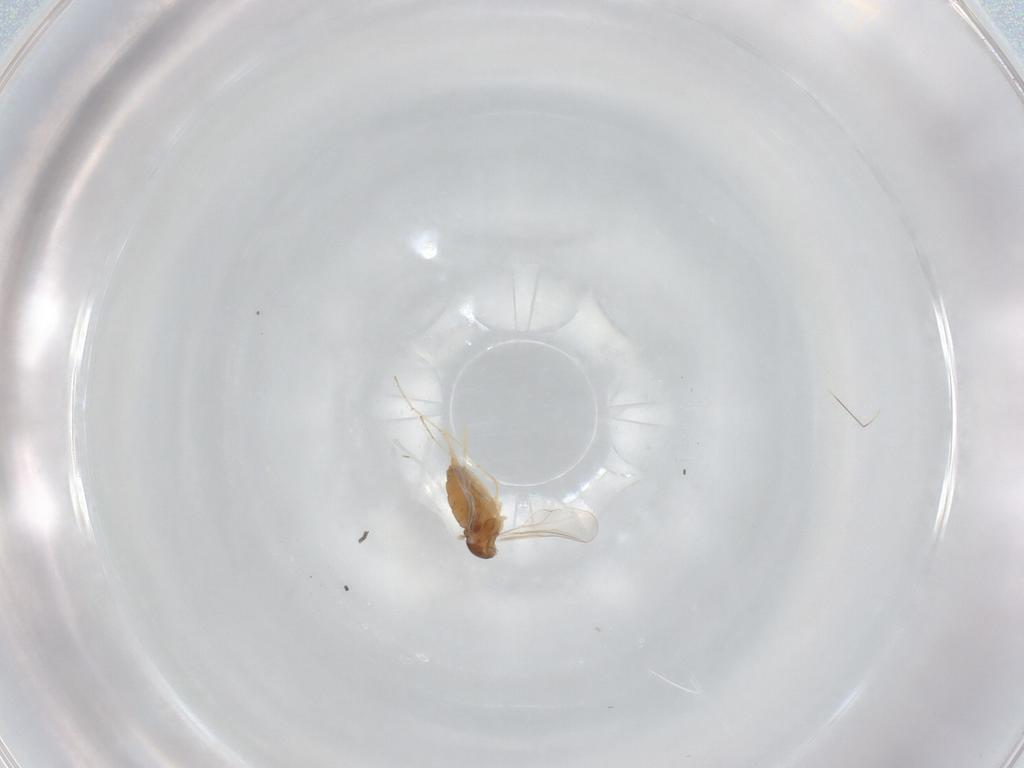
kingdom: Animalia
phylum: Arthropoda
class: Insecta
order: Diptera
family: Cecidomyiidae
